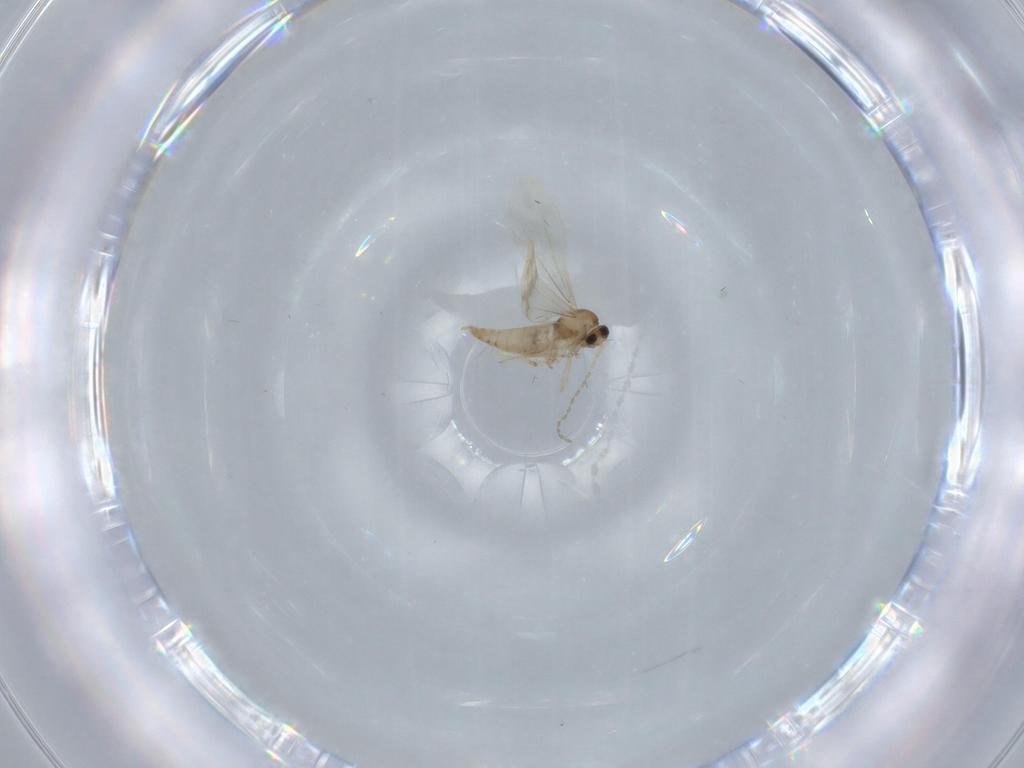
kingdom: Animalia
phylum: Arthropoda
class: Insecta
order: Diptera
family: Cecidomyiidae
